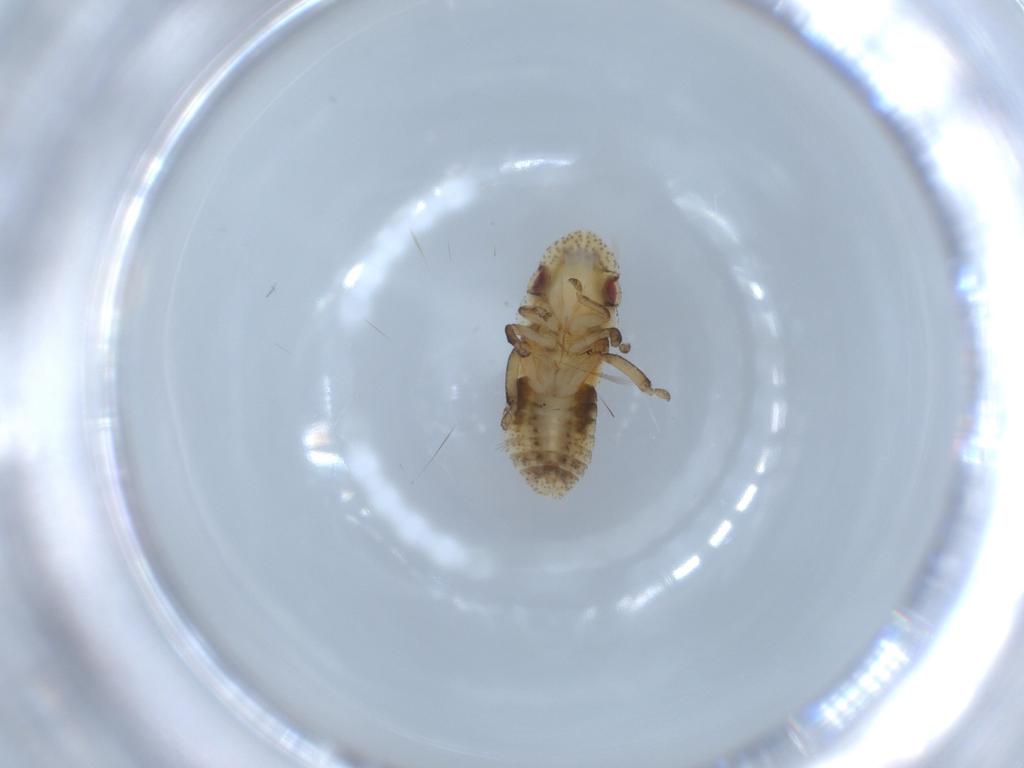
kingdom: Animalia
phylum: Arthropoda
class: Insecta
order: Hemiptera
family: Cicadellidae
